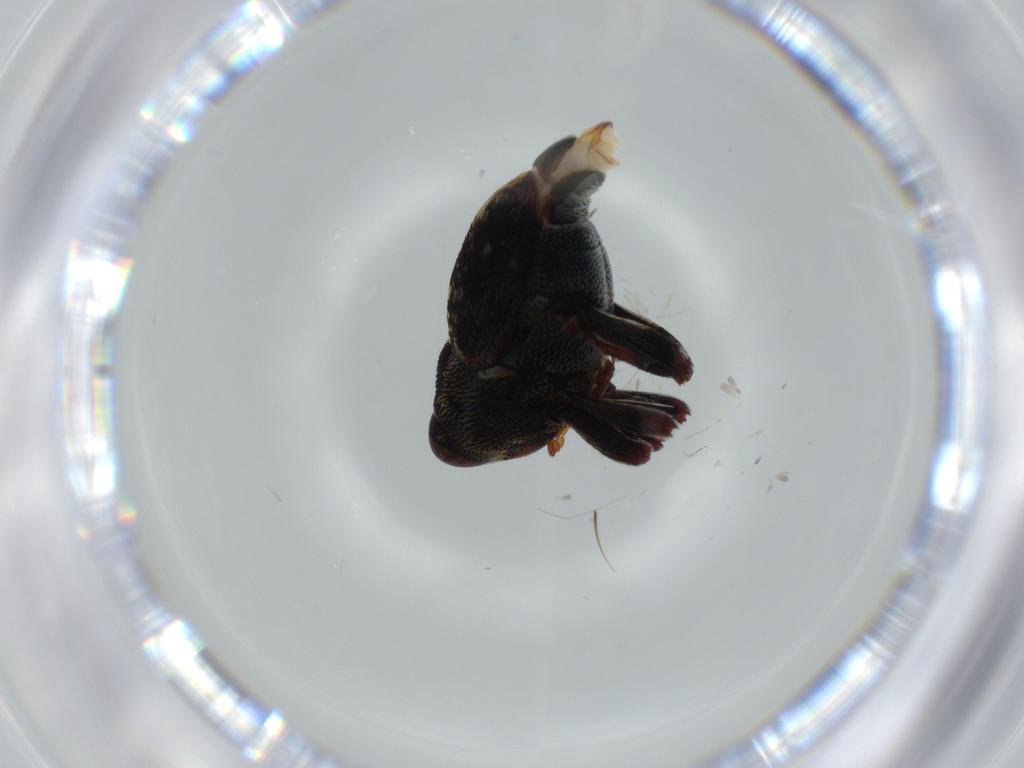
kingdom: Animalia
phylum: Arthropoda
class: Insecta
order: Coleoptera
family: Curculionidae
